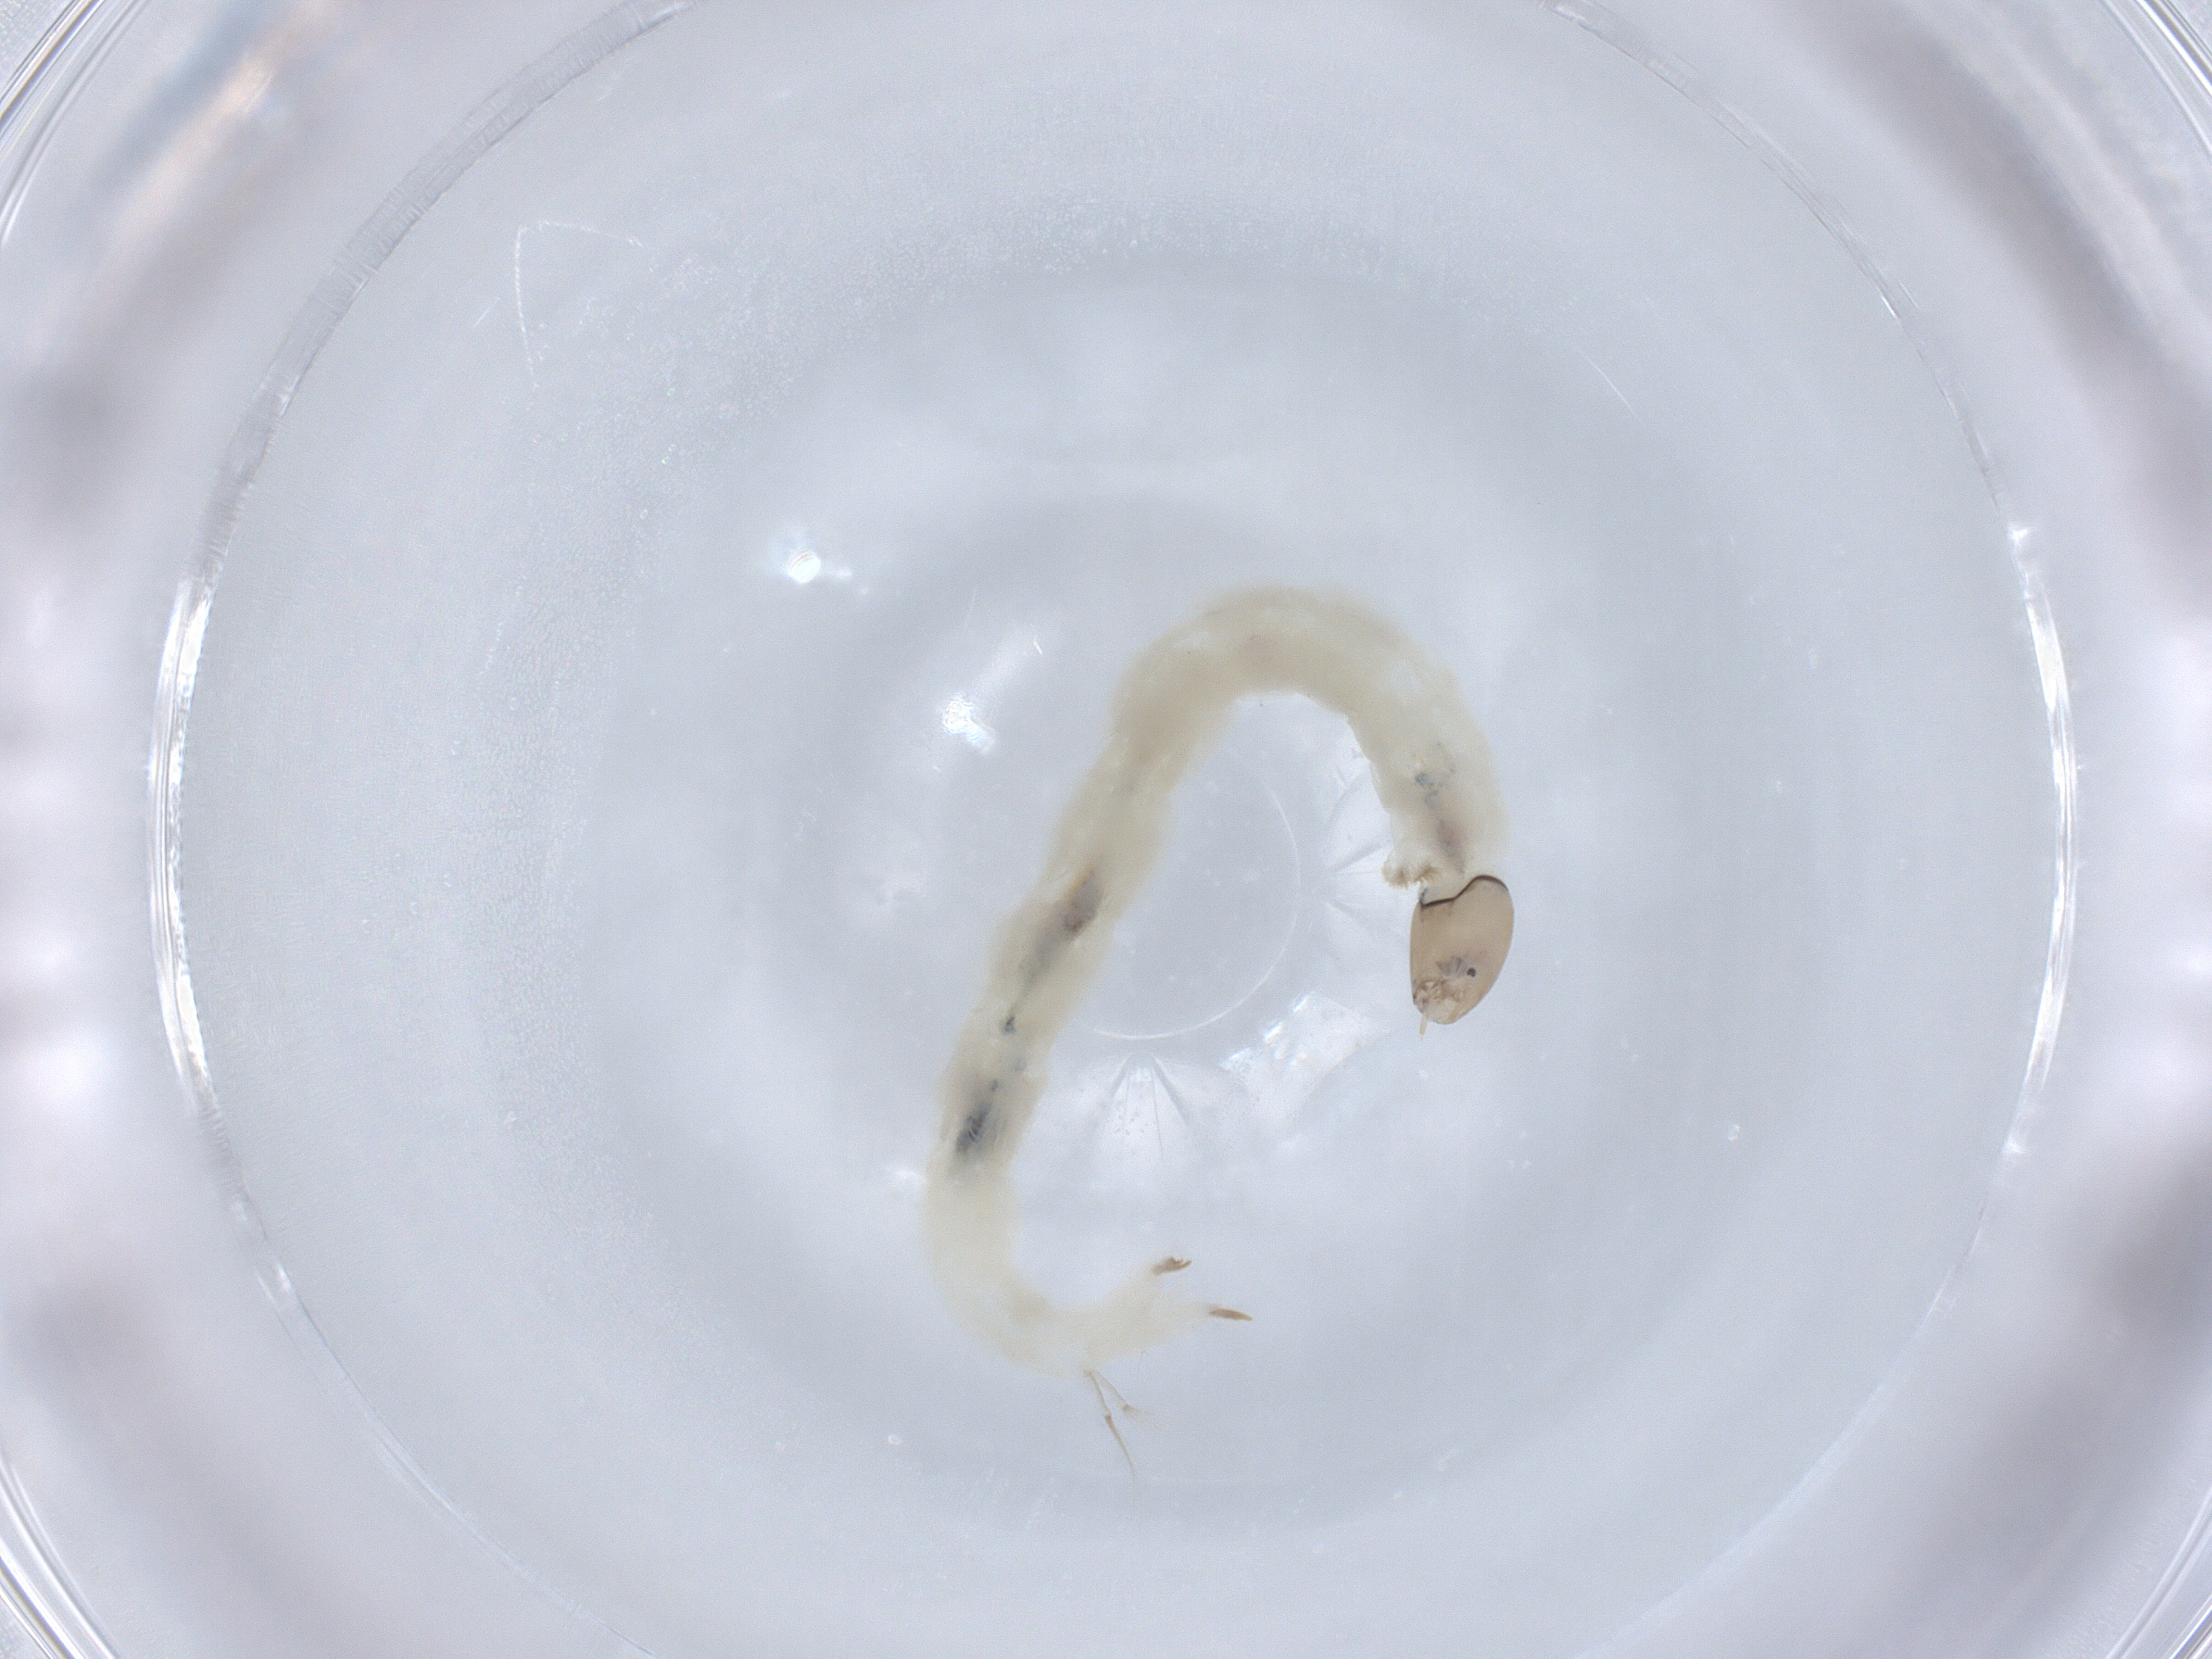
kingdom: Animalia
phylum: Arthropoda
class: Insecta
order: Diptera
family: Chironomidae
